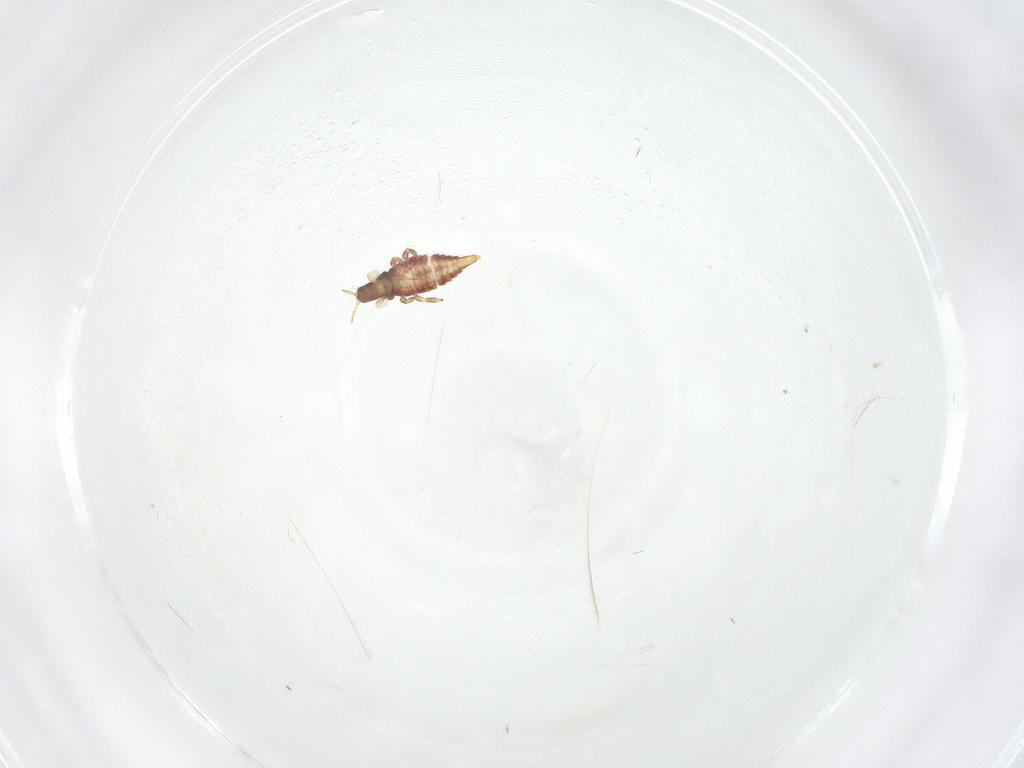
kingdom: Animalia
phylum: Arthropoda
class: Insecta
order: Thysanoptera
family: Phlaeothripidae
